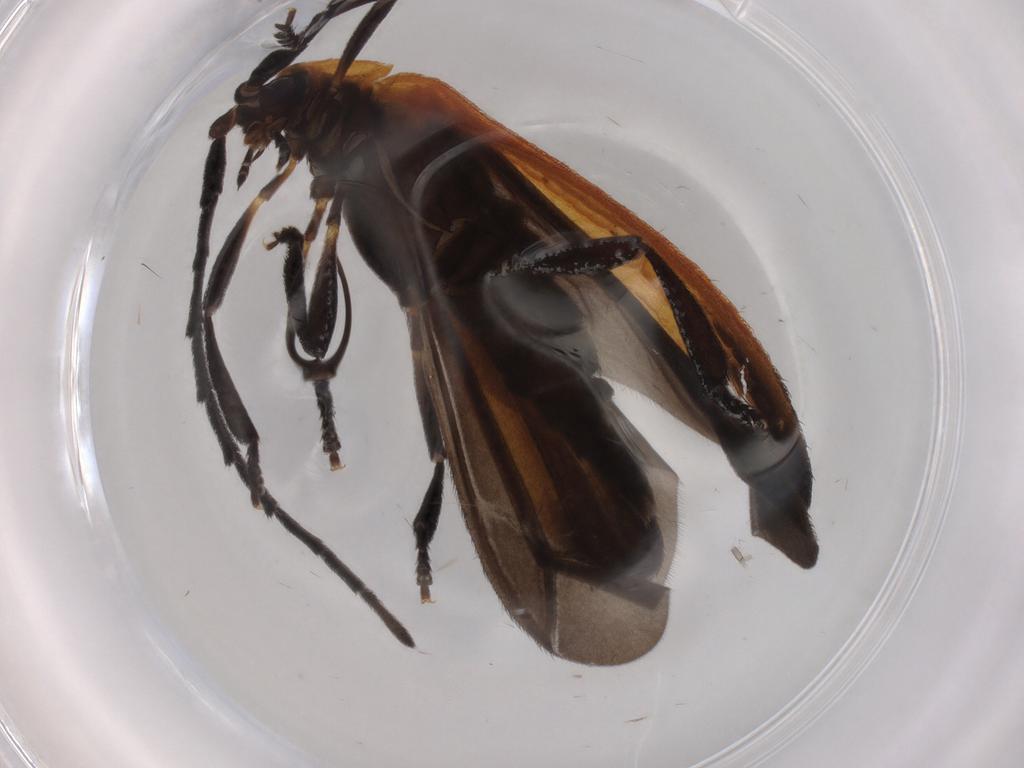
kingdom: Animalia
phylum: Arthropoda
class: Insecta
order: Coleoptera
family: Lycidae
